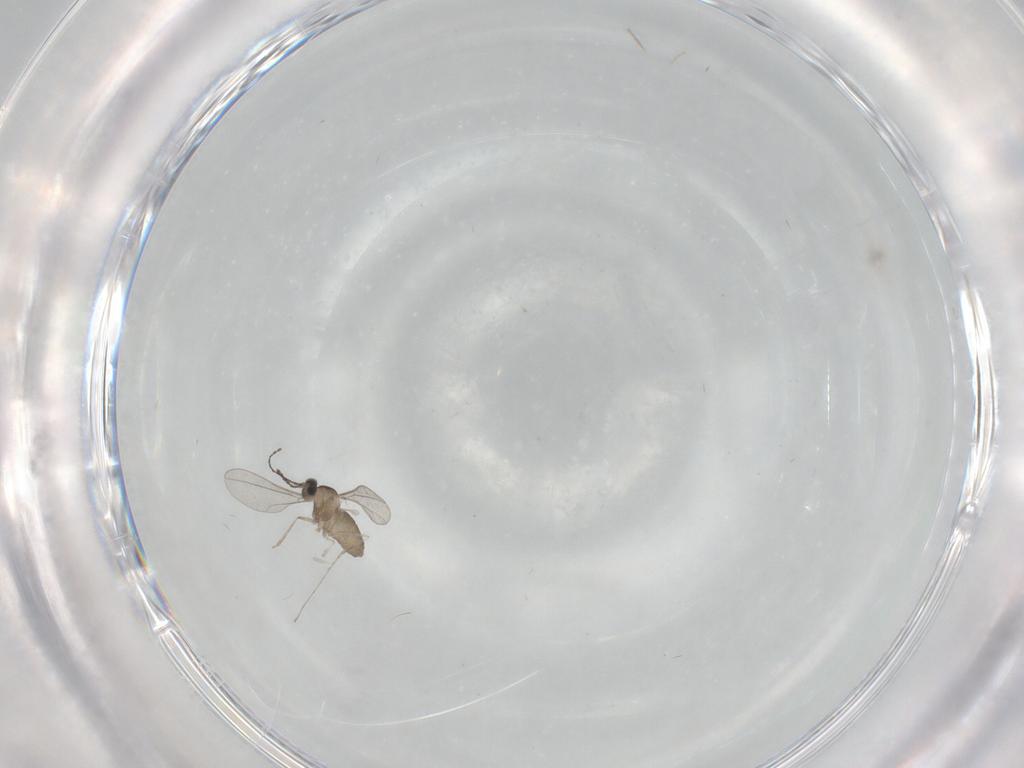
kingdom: Animalia
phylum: Arthropoda
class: Insecta
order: Diptera
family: Cecidomyiidae
